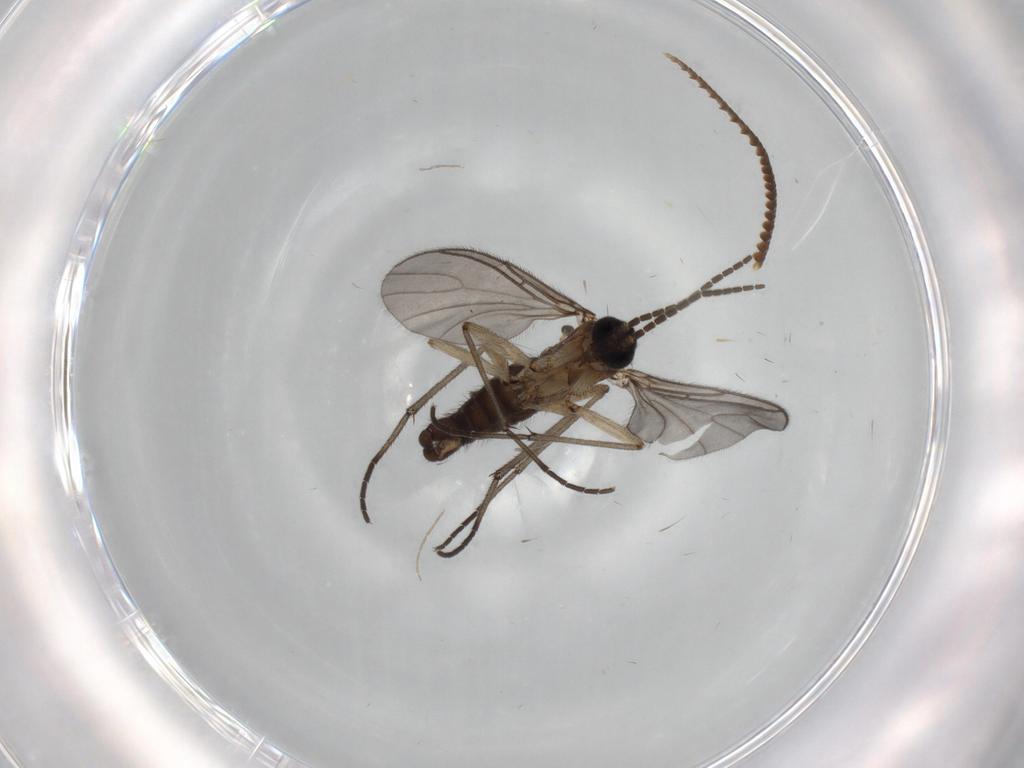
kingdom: Animalia
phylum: Arthropoda
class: Insecta
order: Diptera
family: Sciaridae
